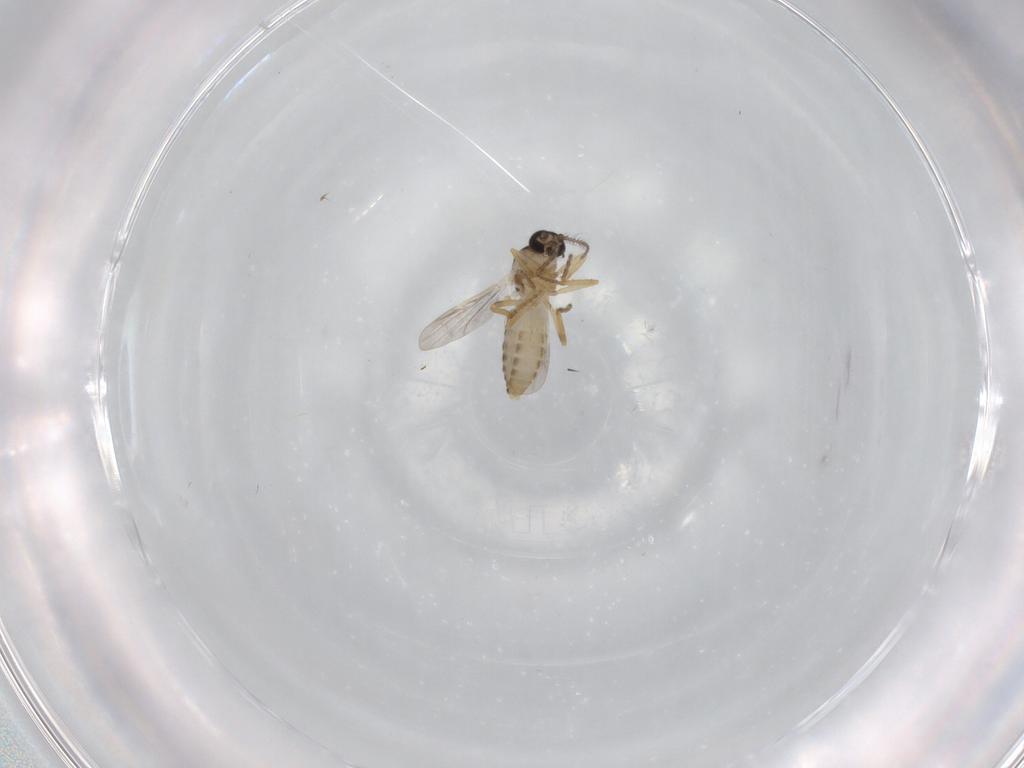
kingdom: Animalia
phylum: Arthropoda
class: Insecta
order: Diptera
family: Ceratopogonidae
